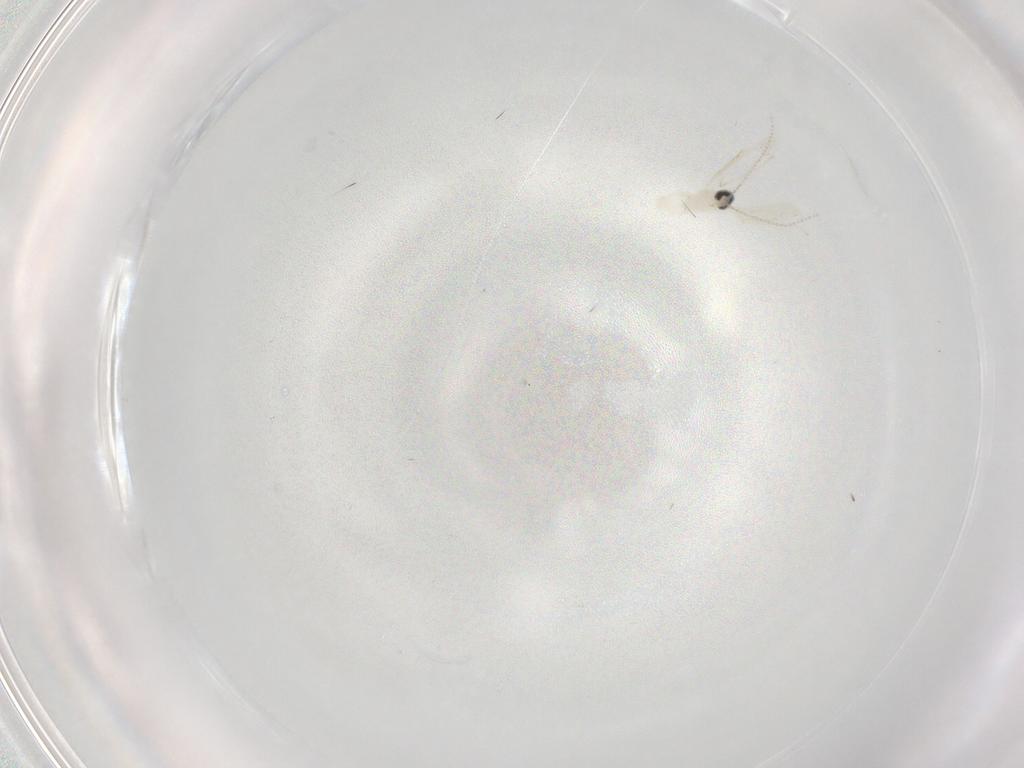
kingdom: Animalia
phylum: Arthropoda
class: Insecta
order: Diptera
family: Cecidomyiidae
